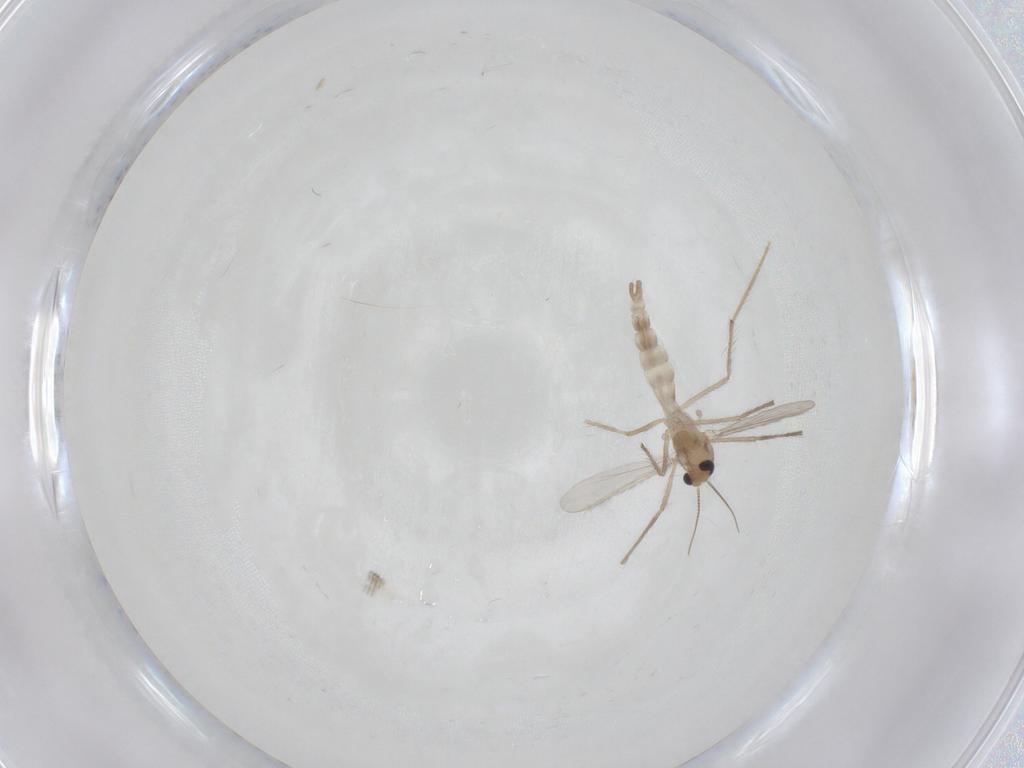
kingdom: Animalia
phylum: Arthropoda
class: Insecta
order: Diptera
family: Chironomidae
